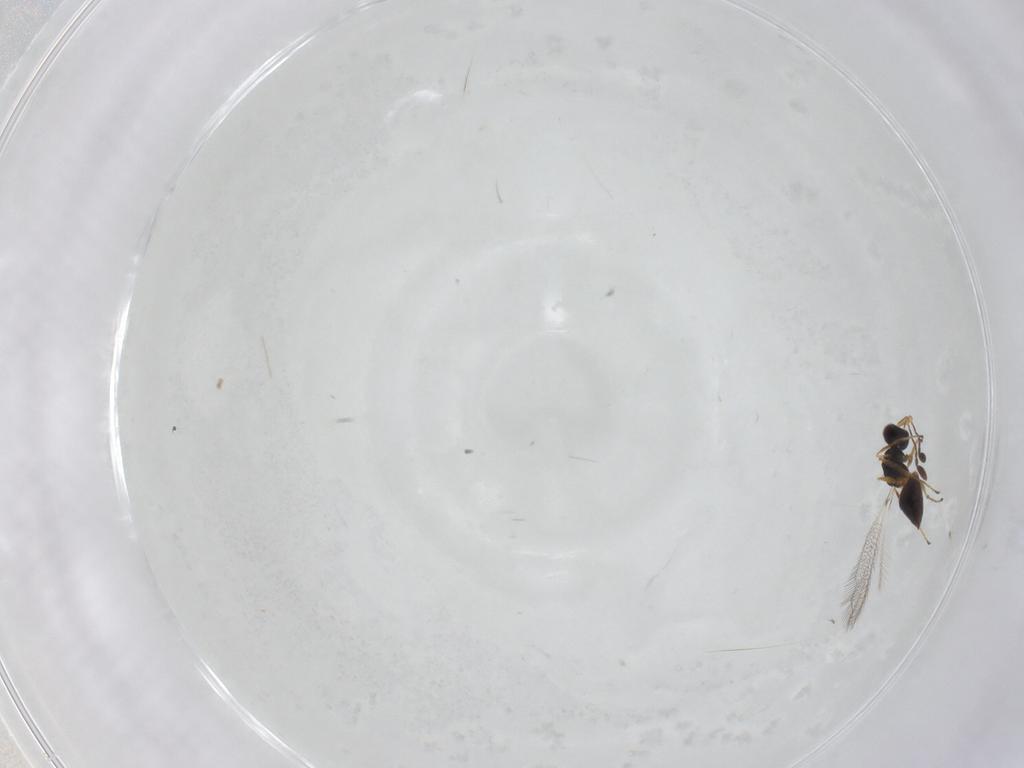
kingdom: Animalia
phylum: Arthropoda
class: Insecta
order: Hymenoptera
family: Mymaridae
